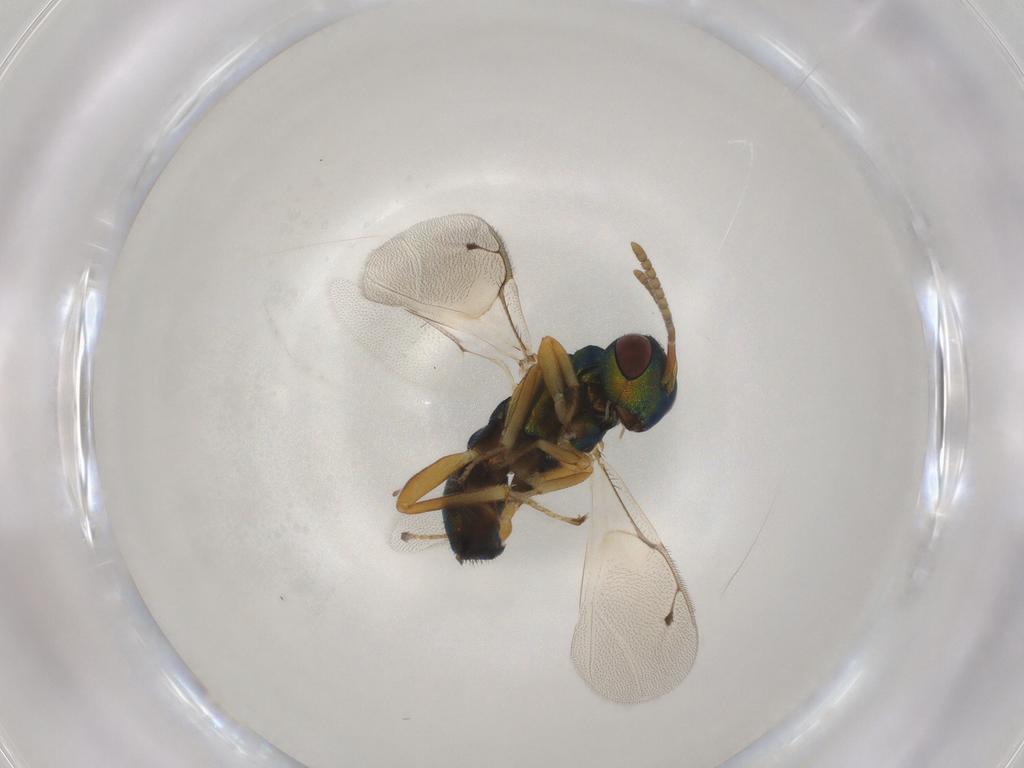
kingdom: Animalia
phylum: Arthropoda
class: Insecta
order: Hymenoptera
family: Pteromalidae
